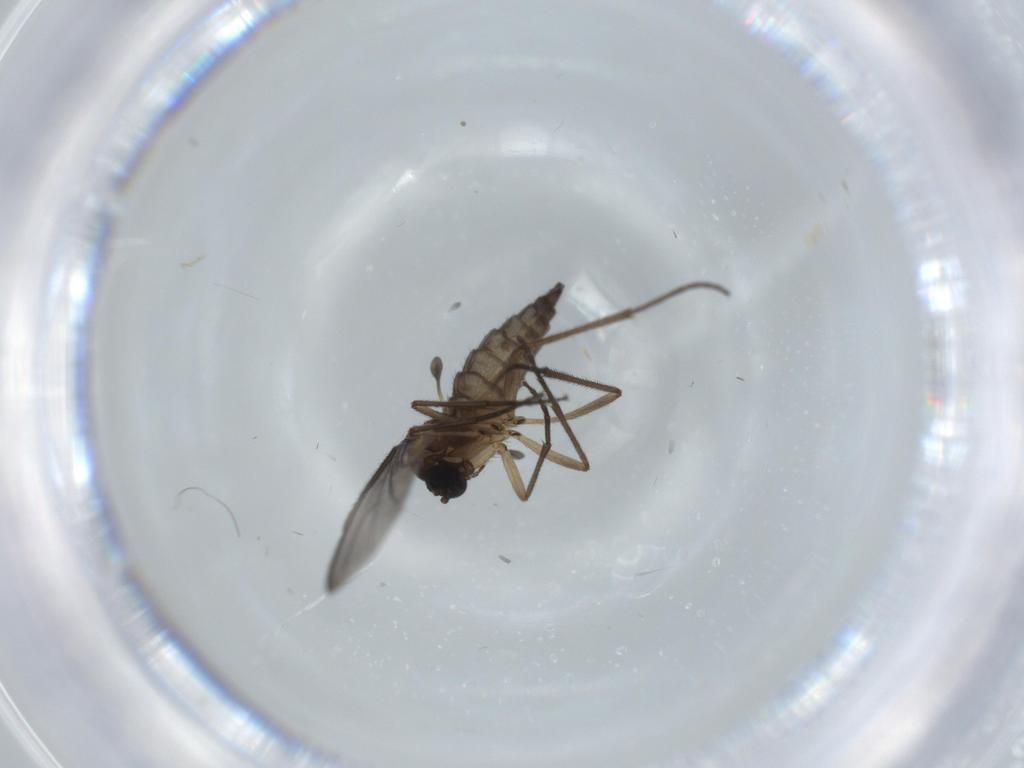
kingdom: Animalia
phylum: Arthropoda
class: Insecta
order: Diptera
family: Sciaridae
